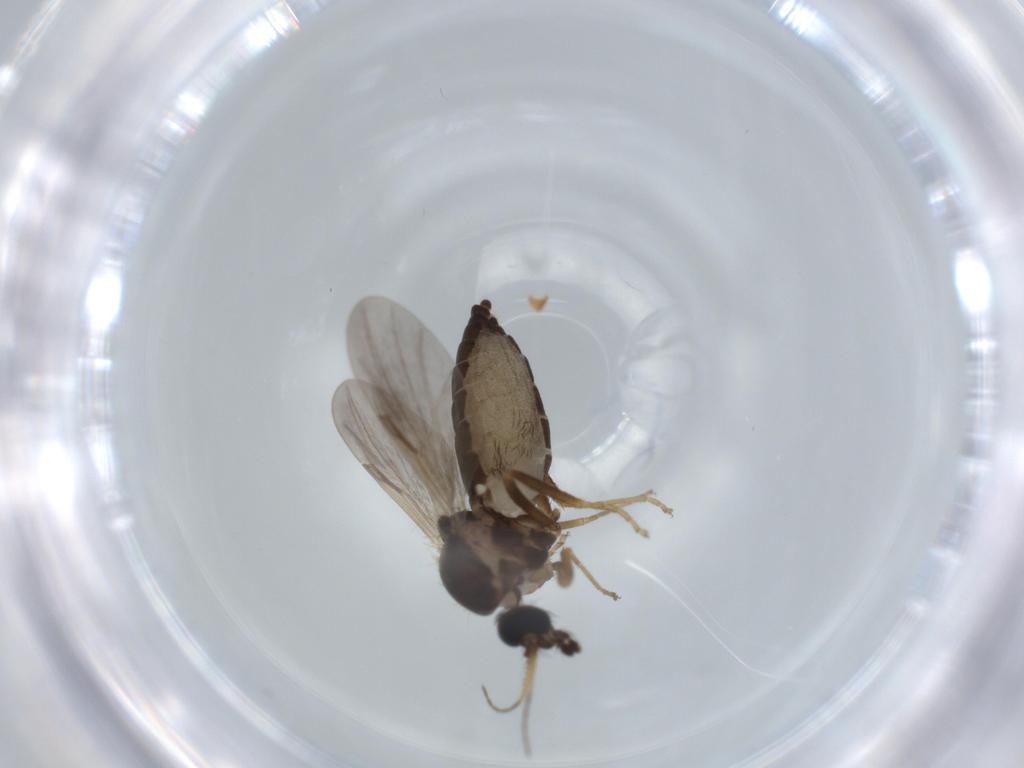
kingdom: Animalia
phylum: Arthropoda
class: Insecta
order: Diptera
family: Ceratopogonidae
